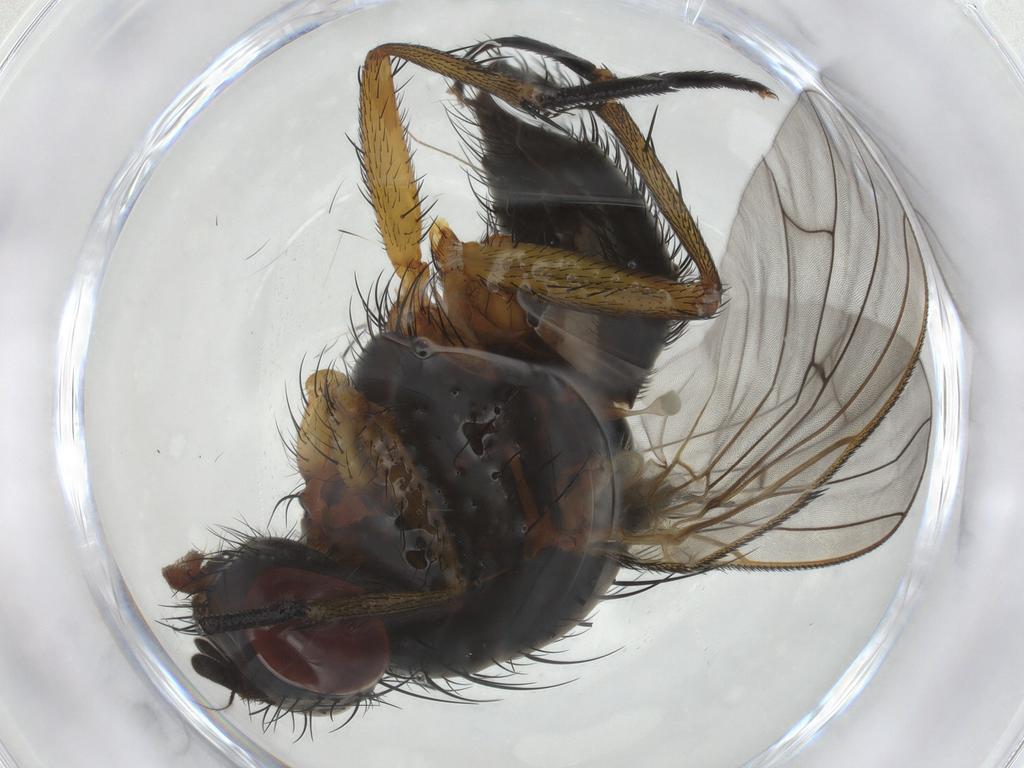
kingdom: Animalia
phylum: Arthropoda
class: Insecta
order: Diptera
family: Anthomyiidae
